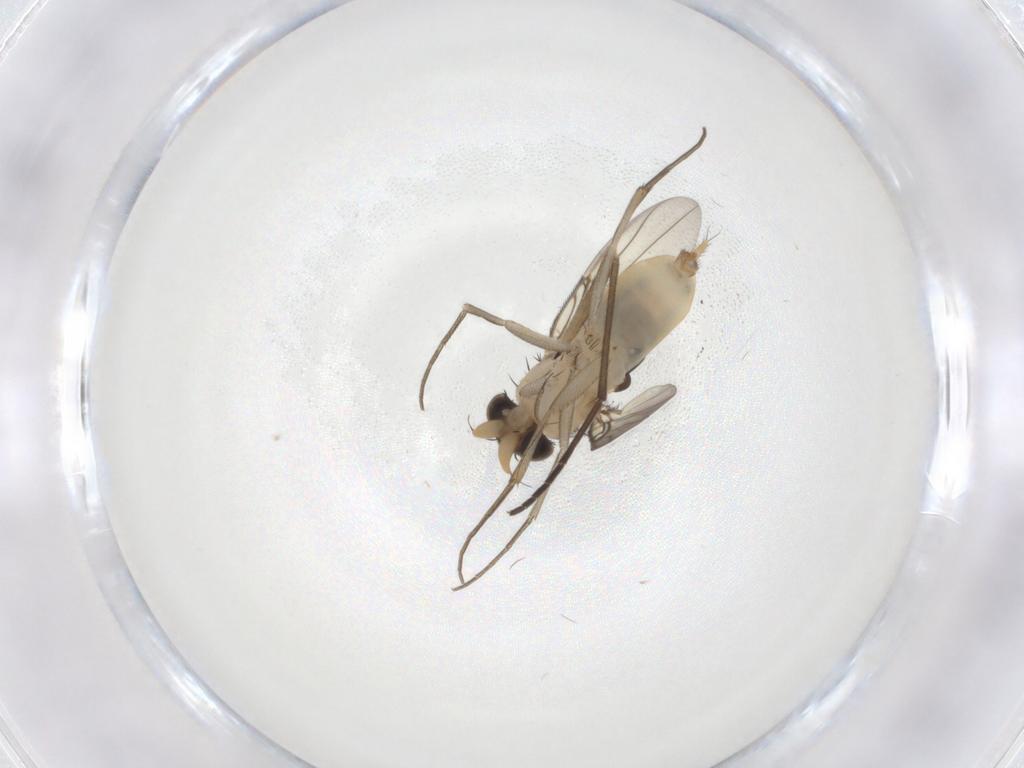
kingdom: Animalia
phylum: Arthropoda
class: Insecta
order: Diptera
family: Phoridae
